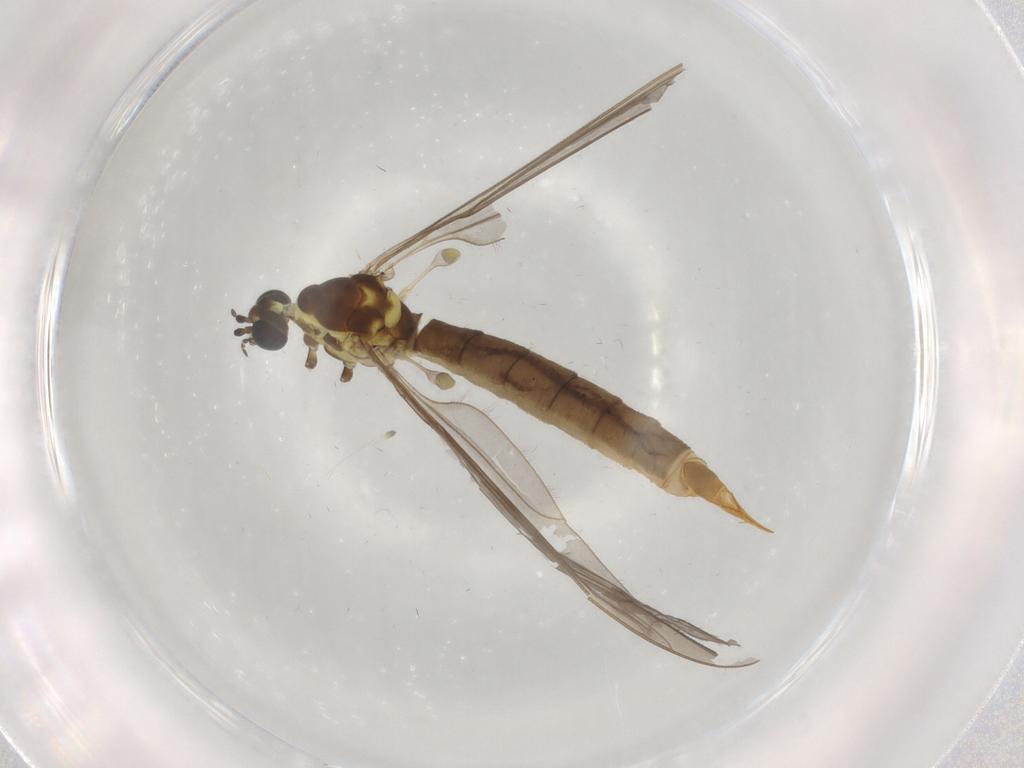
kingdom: Animalia
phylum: Arthropoda
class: Insecta
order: Diptera
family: Limoniidae
